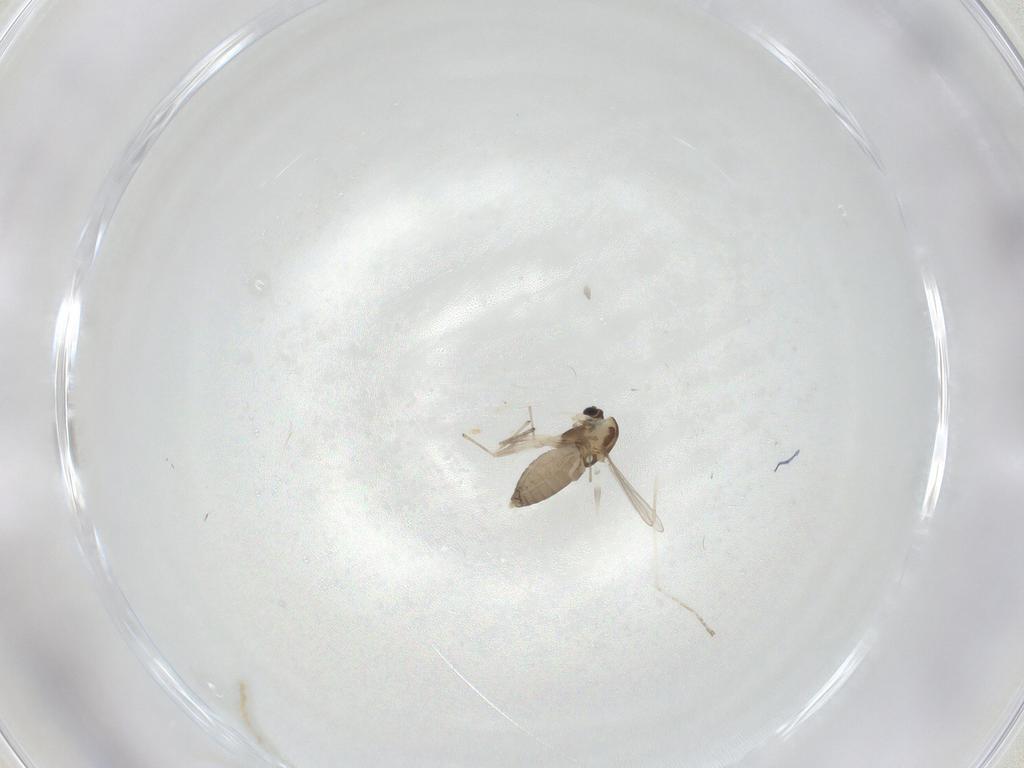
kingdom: Animalia
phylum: Arthropoda
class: Insecta
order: Diptera
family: Chironomidae
